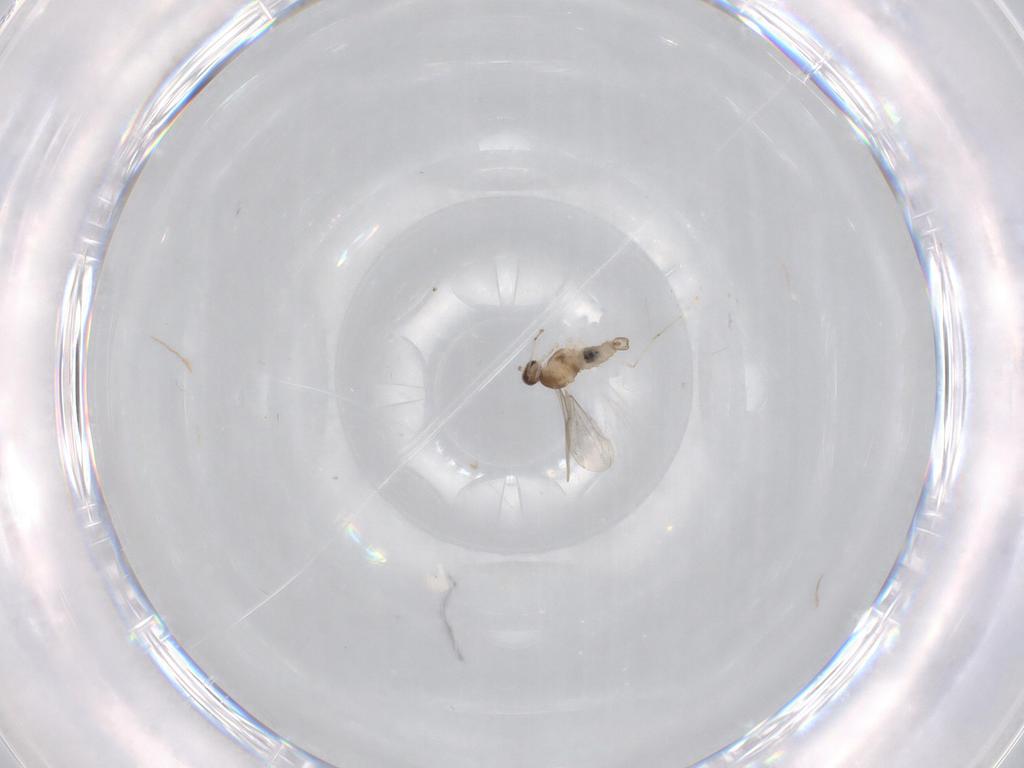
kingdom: Animalia
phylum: Arthropoda
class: Insecta
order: Diptera
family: Cecidomyiidae
